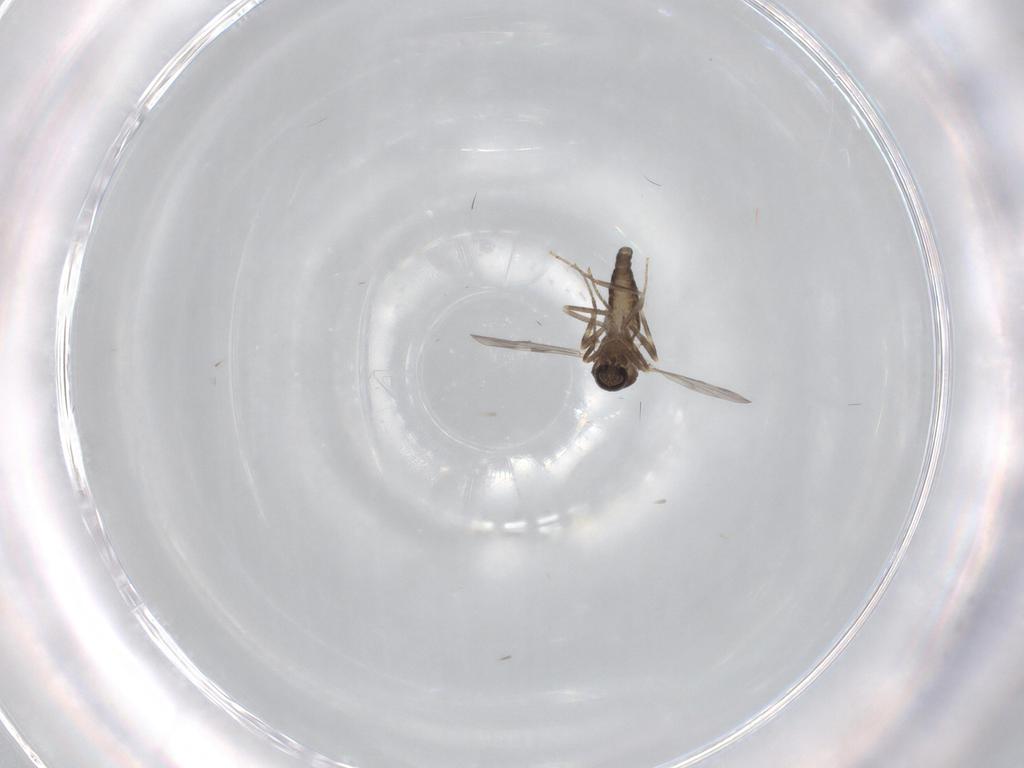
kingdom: Animalia
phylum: Arthropoda
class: Insecta
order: Diptera
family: Ceratopogonidae
